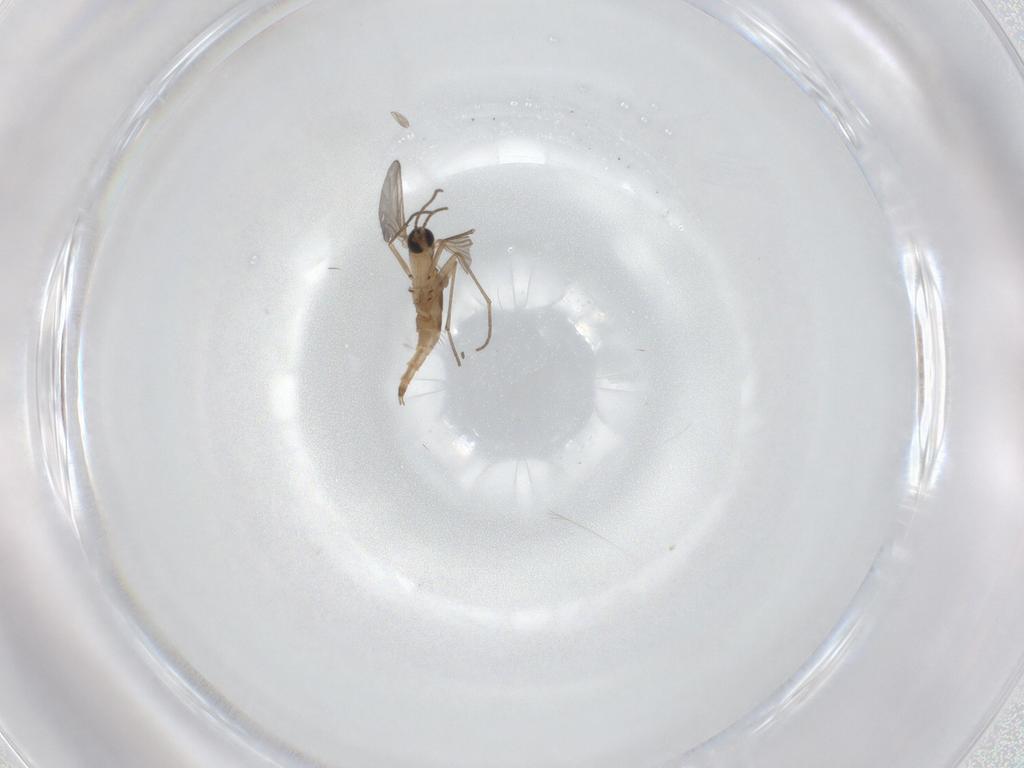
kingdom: Animalia
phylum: Arthropoda
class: Insecta
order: Diptera
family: Sciaridae
